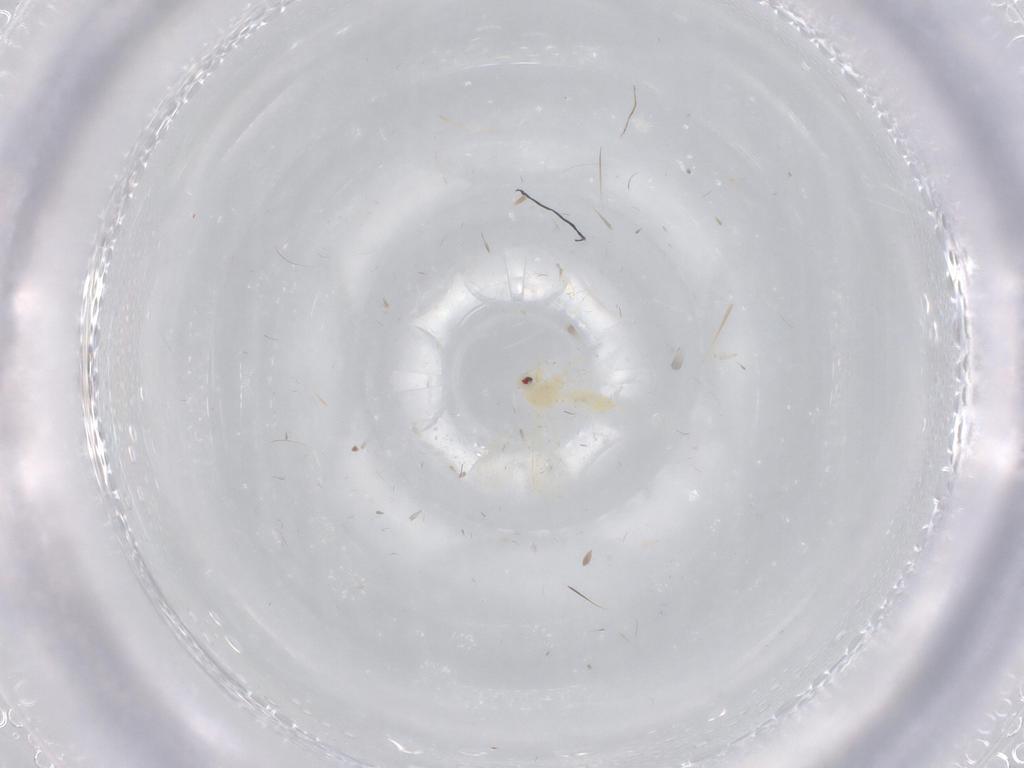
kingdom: Animalia
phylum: Arthropoda
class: Insecta
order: Hemiptera
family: Aleyrodidae
